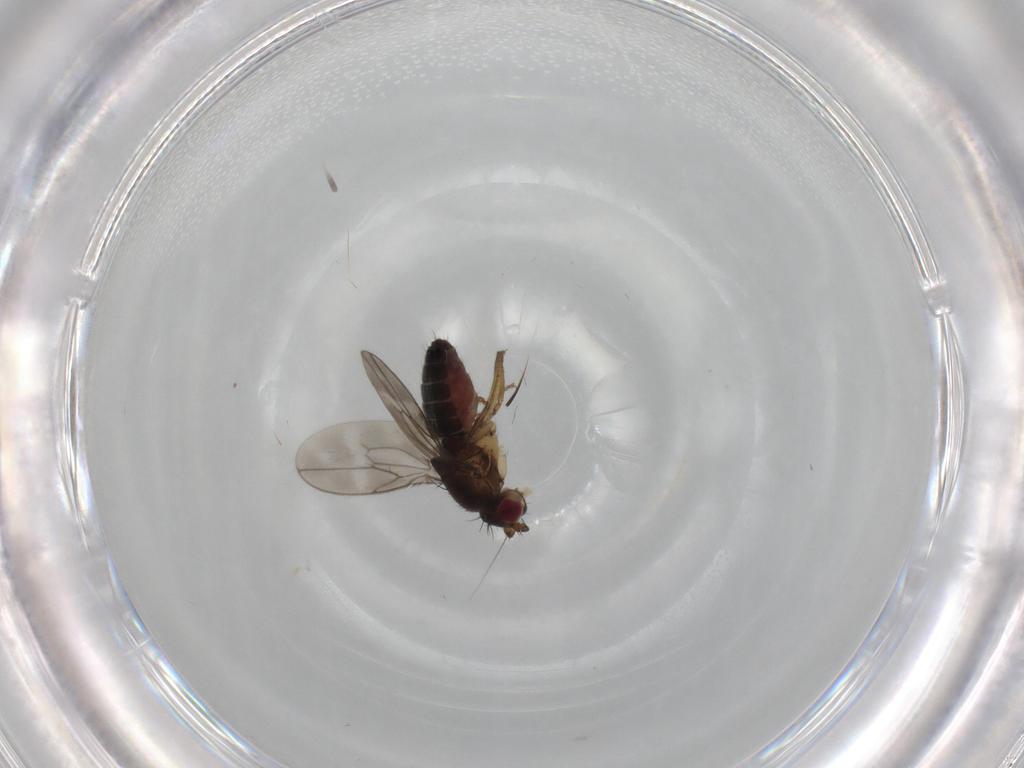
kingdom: Animalia
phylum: Arthropoda
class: Insecta
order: Diptera
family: Sphaeroceridae
